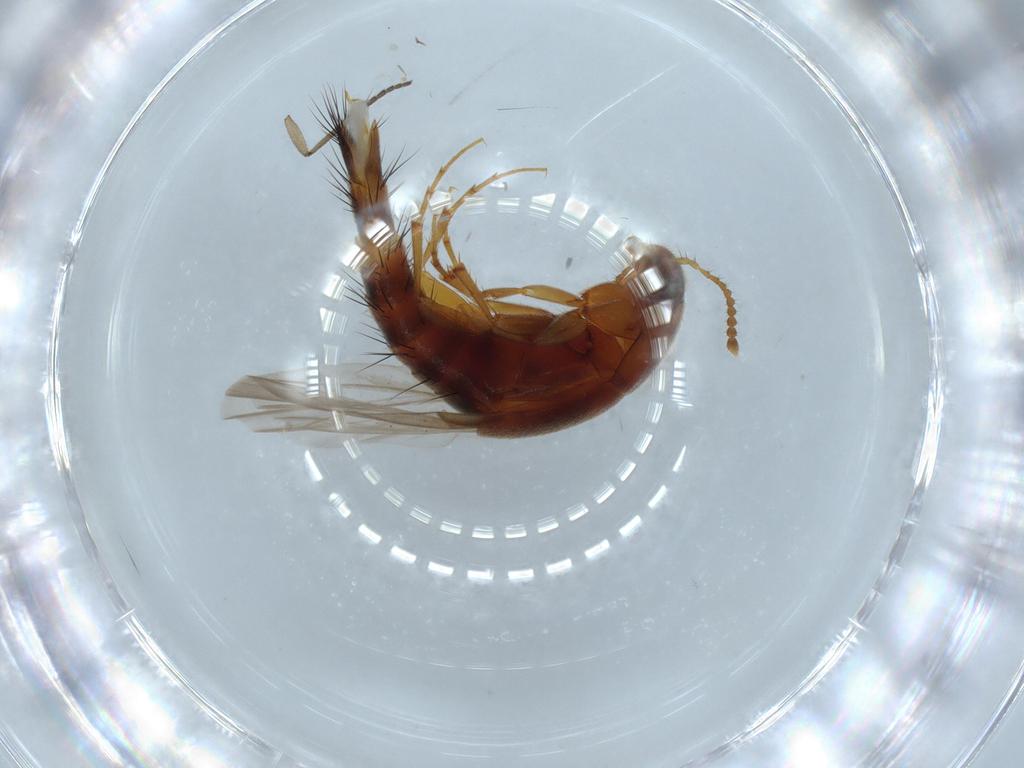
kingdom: Animalia
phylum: Arthropoda
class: Insecta
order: Coleoptera
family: Staphylinidae
